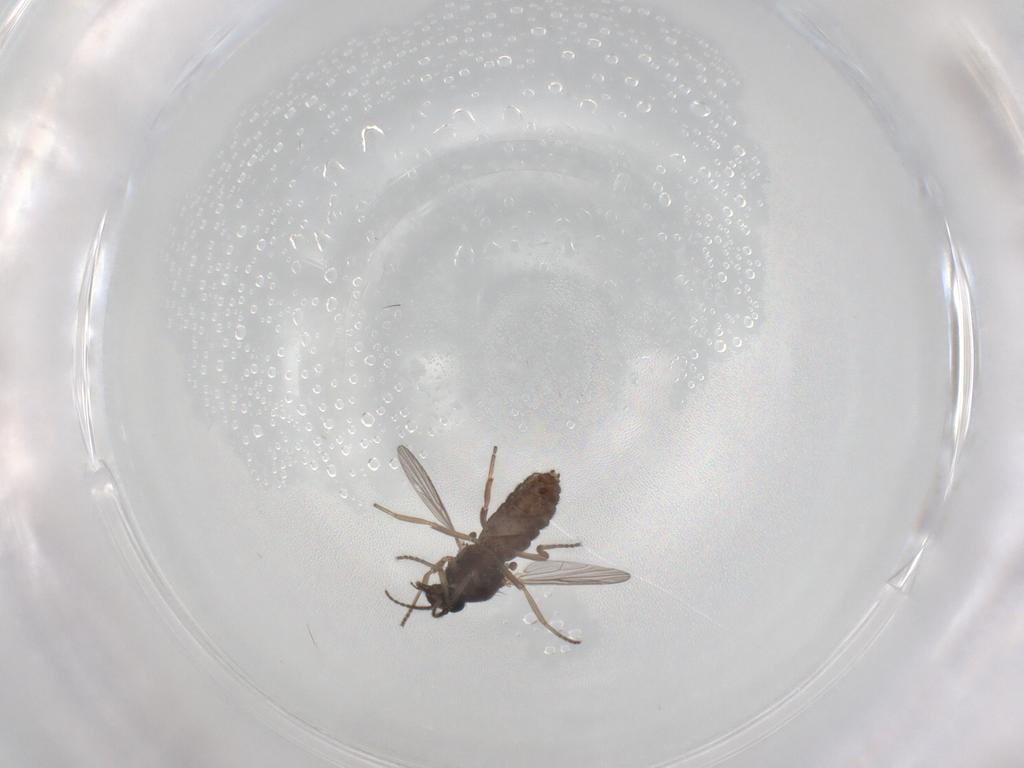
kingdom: Animalia
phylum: Arthropoda
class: Insecta
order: Diptera
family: Ceratopogonidae
